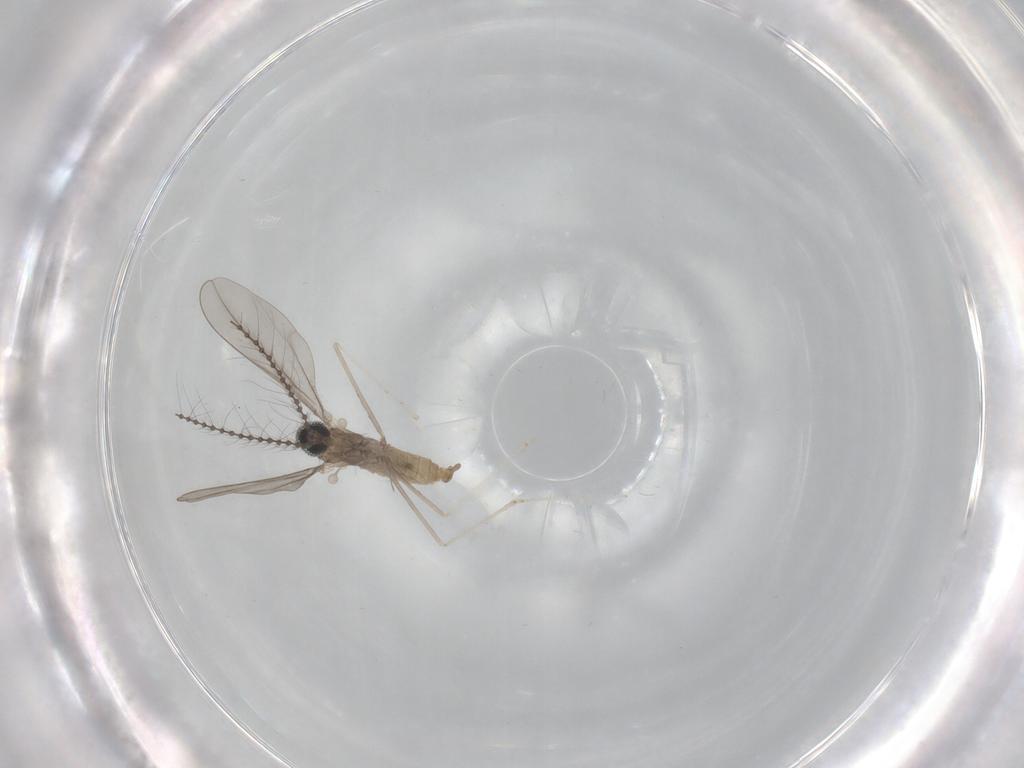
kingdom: Animalia
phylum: Arthropoda
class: Insecta
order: Diptera
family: Cecidomyiidae
